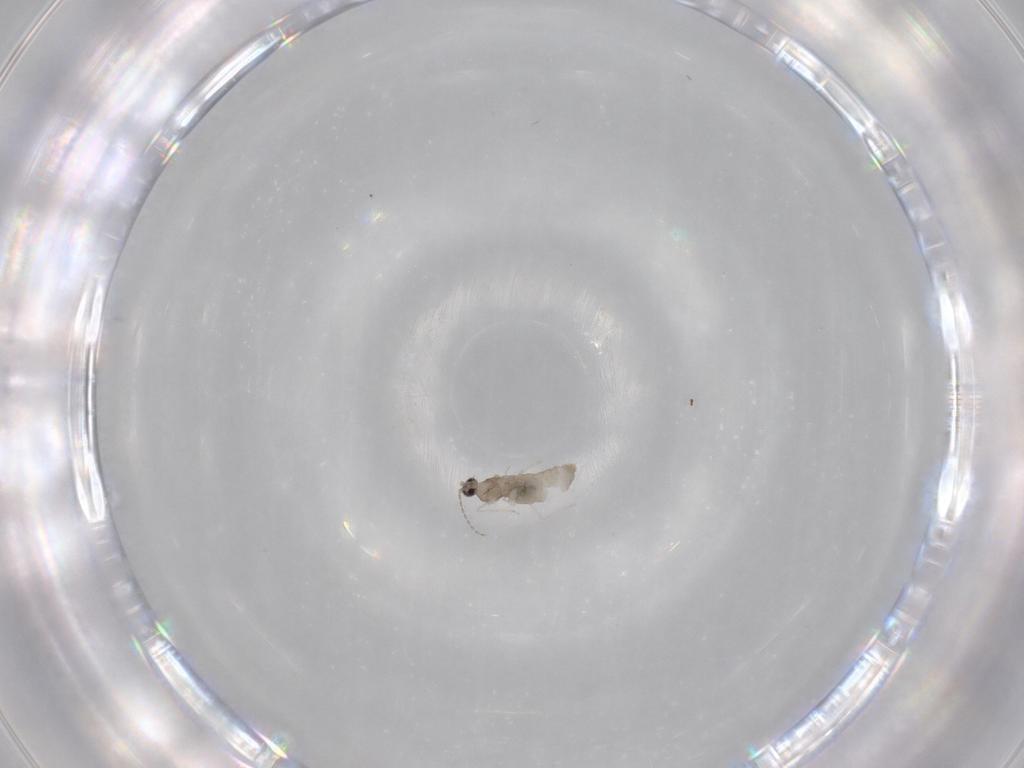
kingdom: Animalia
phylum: Arthropoda
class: Insecta
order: Diptera
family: Cecidomyiidae
